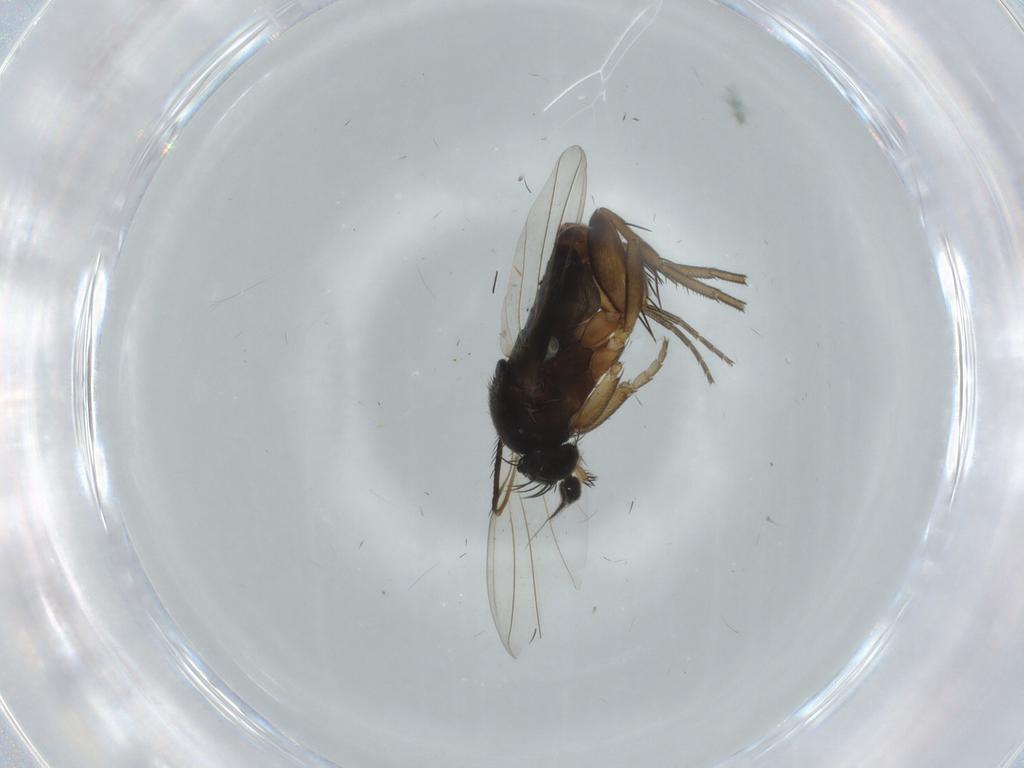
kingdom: Animalia
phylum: Arthropoda
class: Insecta
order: Diptera
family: Phoridae
